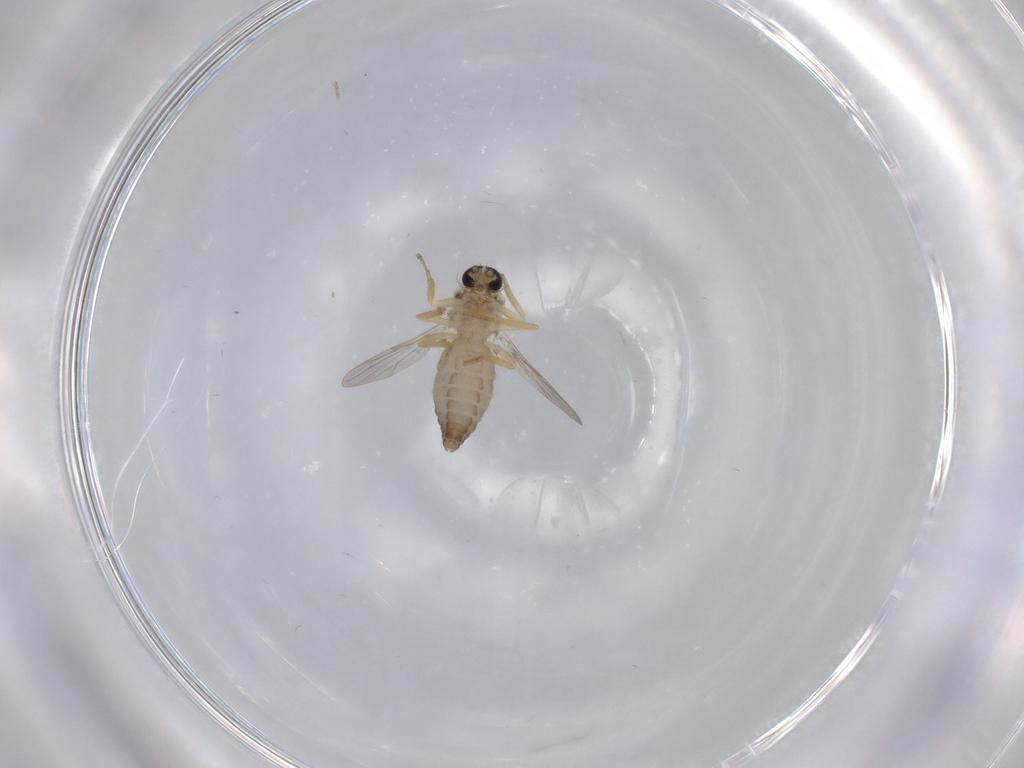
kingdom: Animalia
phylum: Arthropoda
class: Insecta
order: Diptera
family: Ceratopogonidae
